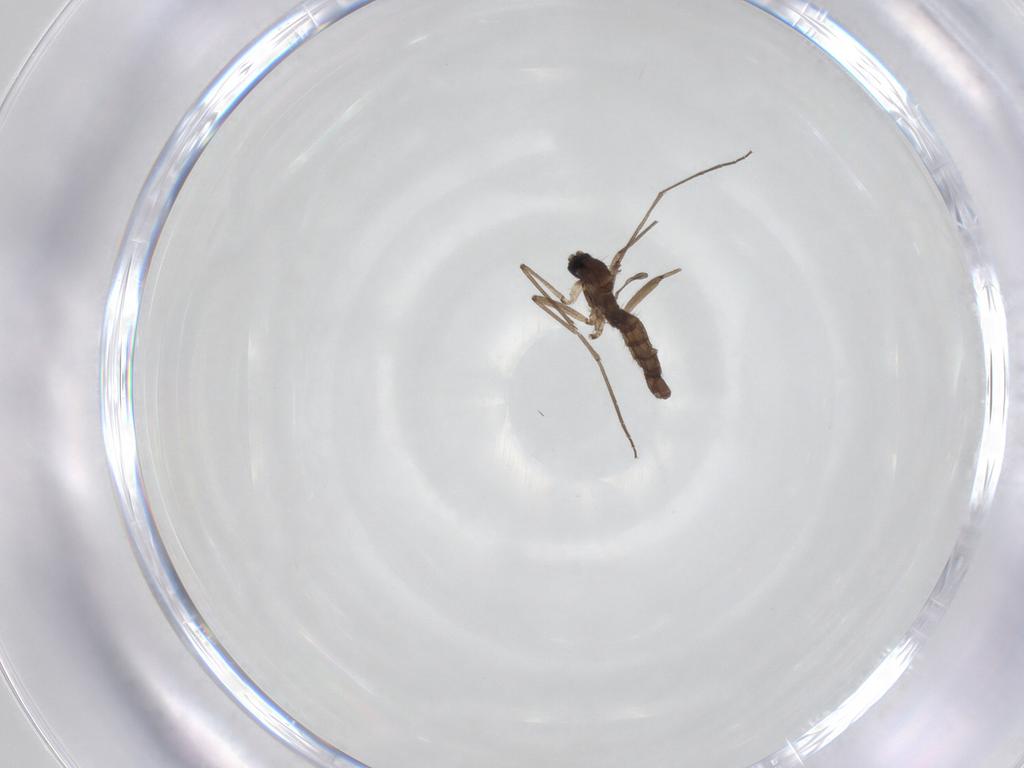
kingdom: Animalia
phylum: Arthropoda
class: Insecta
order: Diptera
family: Sciaridae
